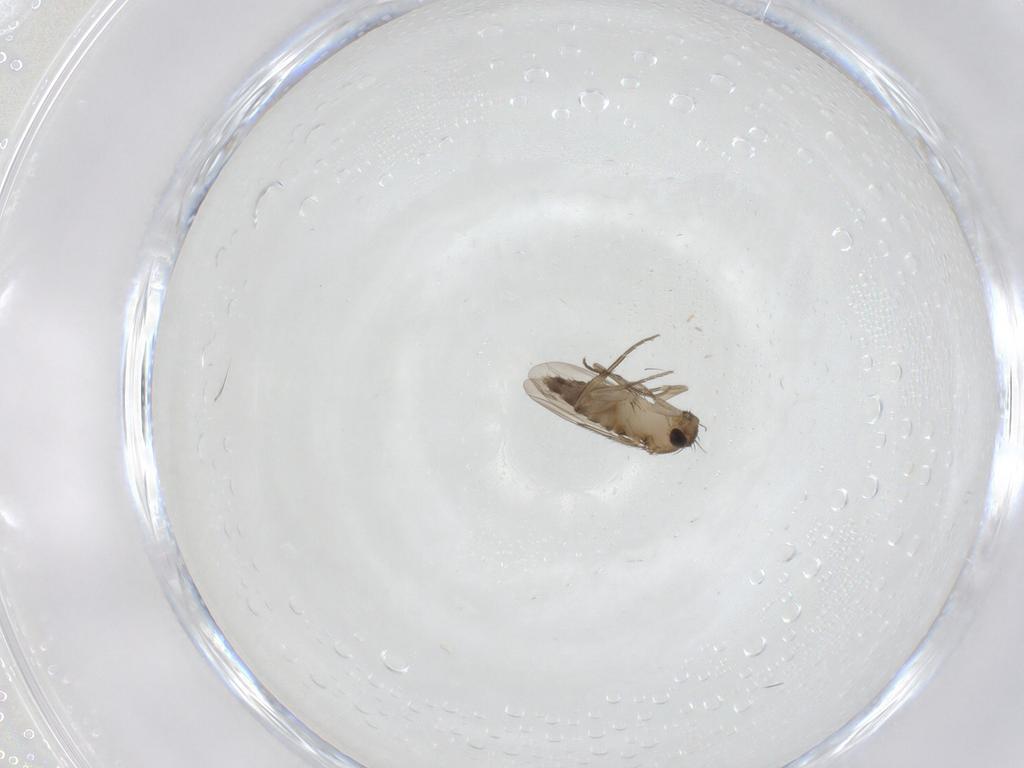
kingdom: Animalia
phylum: Arthropoda
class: Insecta
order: Diptera
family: Phoridae
